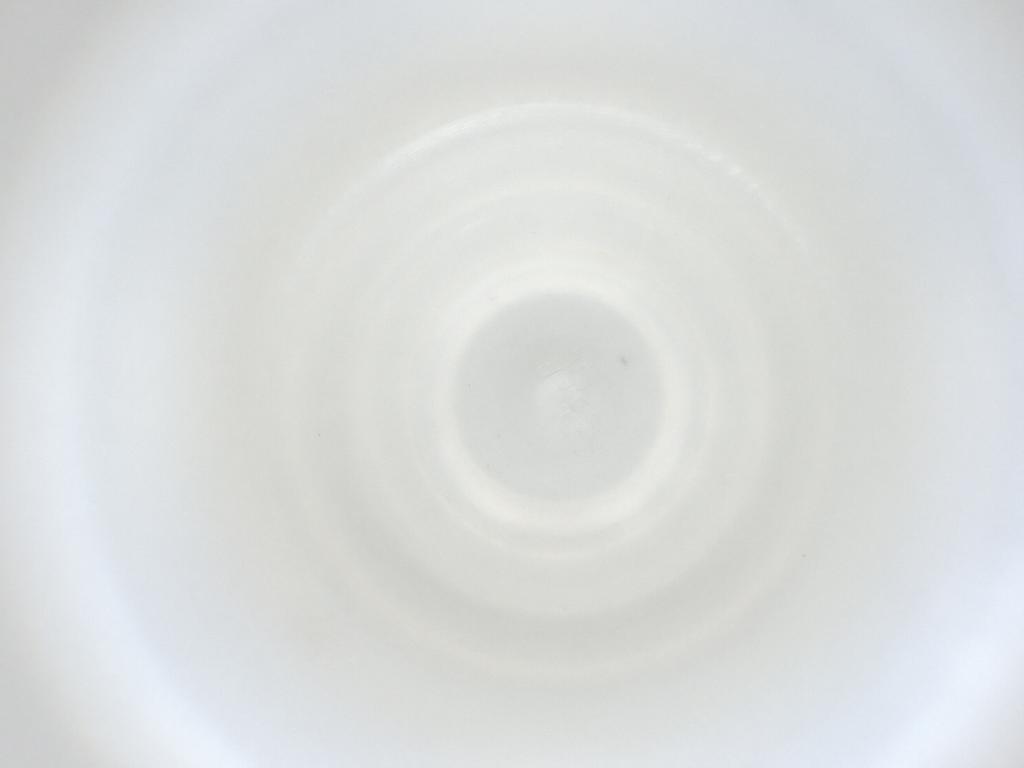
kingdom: Animalia
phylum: Arthropoda
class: Insecta
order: Diptera
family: Cecidomyiidae
